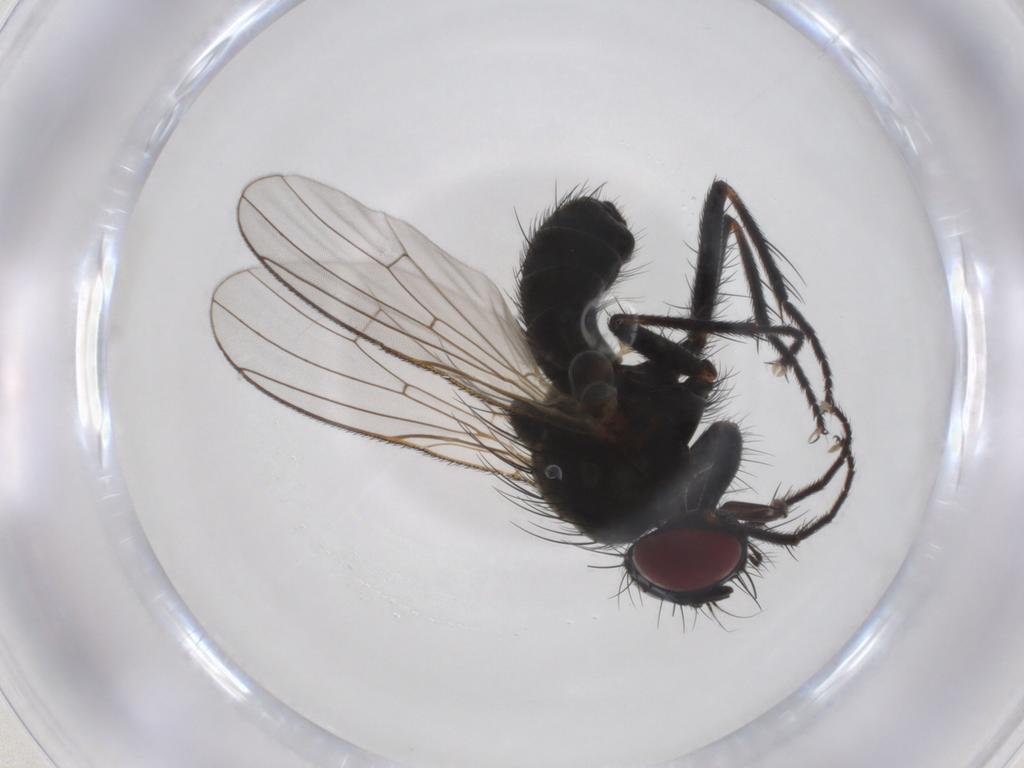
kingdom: Animalia
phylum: Arthropoda
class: Insecta
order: Diptera
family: Muscidae
